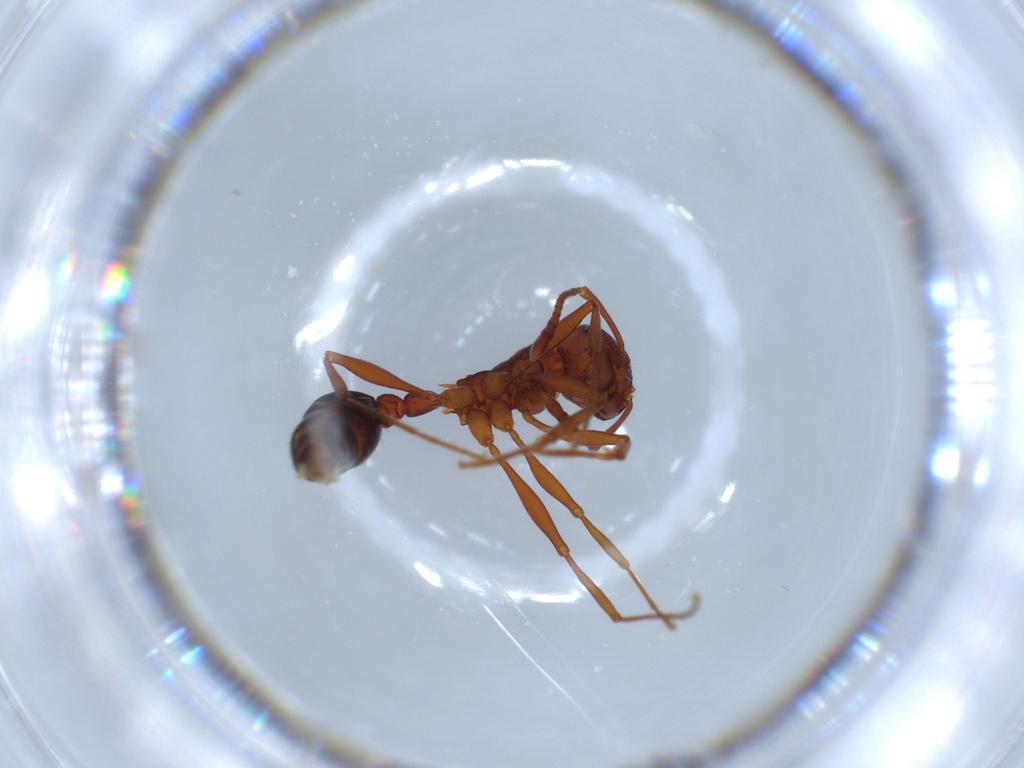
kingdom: Animalia
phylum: Arthropoda
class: Insecta
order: Hymenoptera
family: Formicidae
